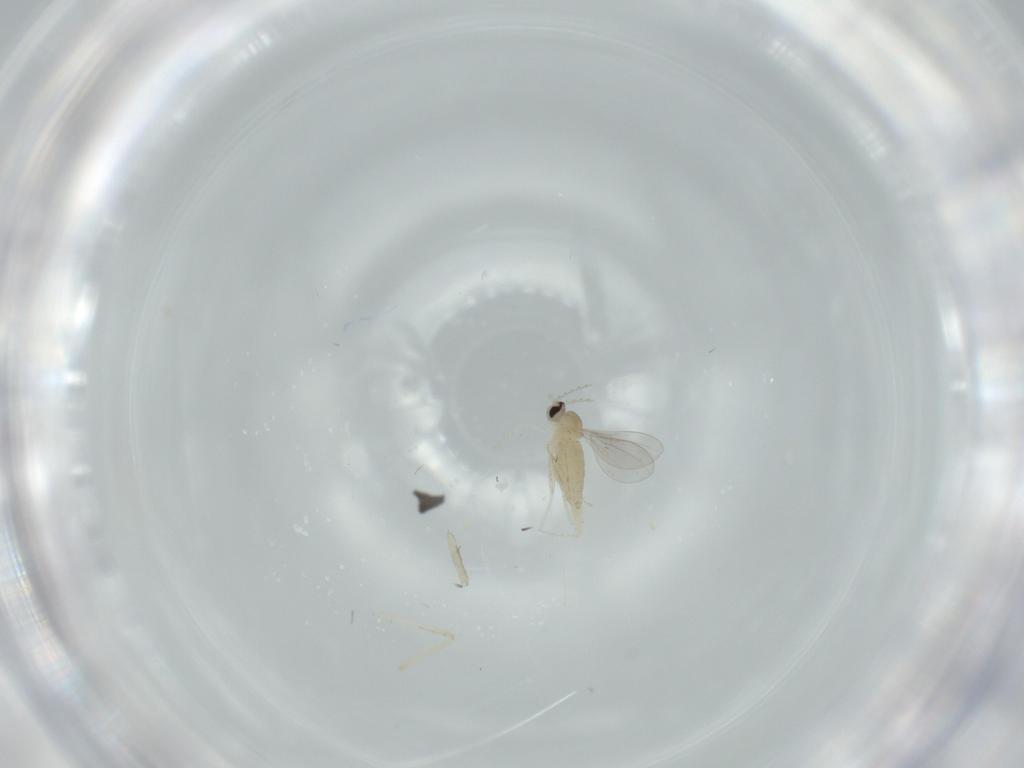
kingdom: Animalia
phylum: Arthropoda
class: Insecta
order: Diptera
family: Cecidomyiidae
